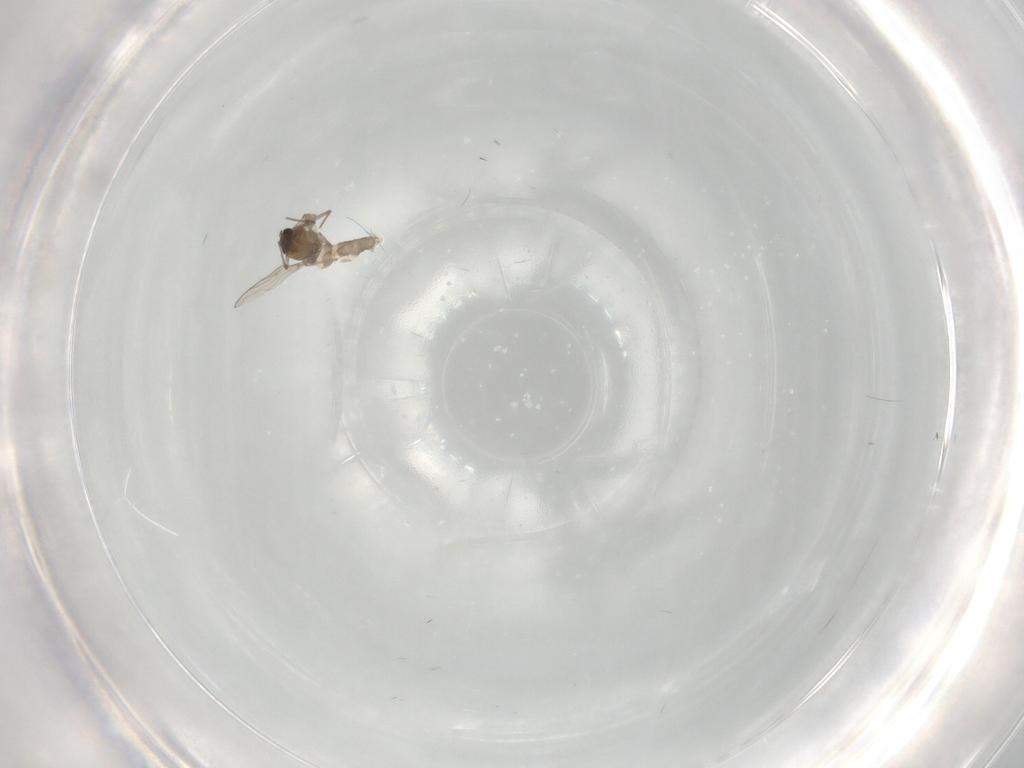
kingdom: Animalia
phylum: Arthropoda
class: Insecta
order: Diptera
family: Chironomidae
